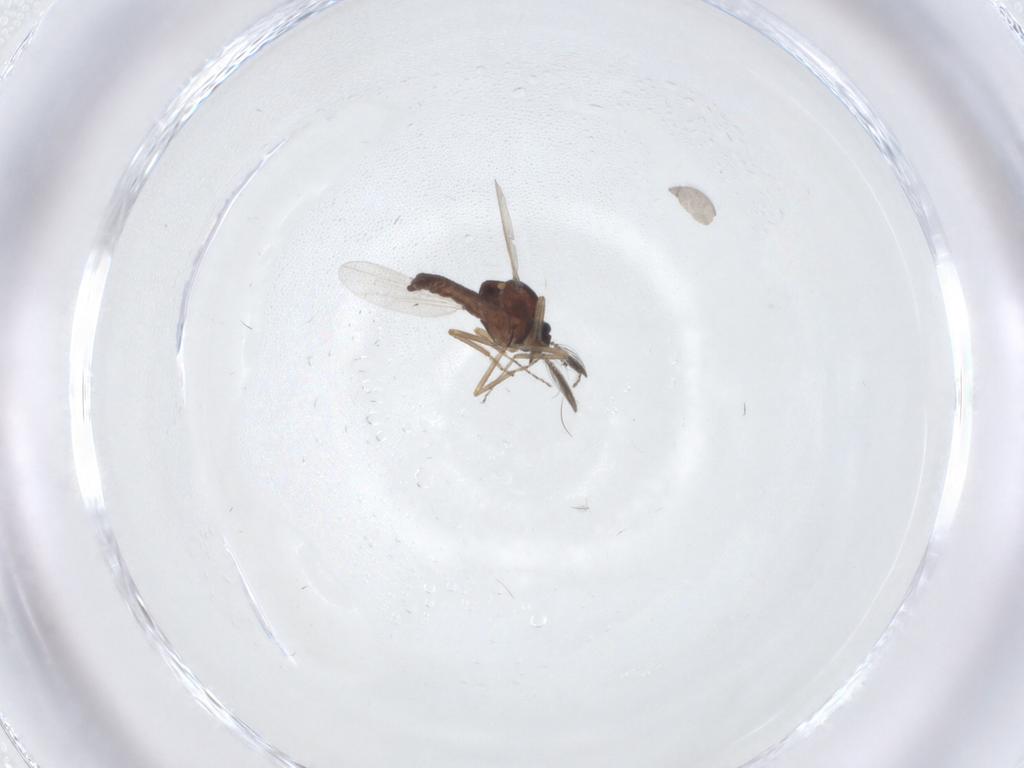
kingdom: Animalia
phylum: Arthropoda
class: Insecta
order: Diptera
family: Ceratopogonidae
